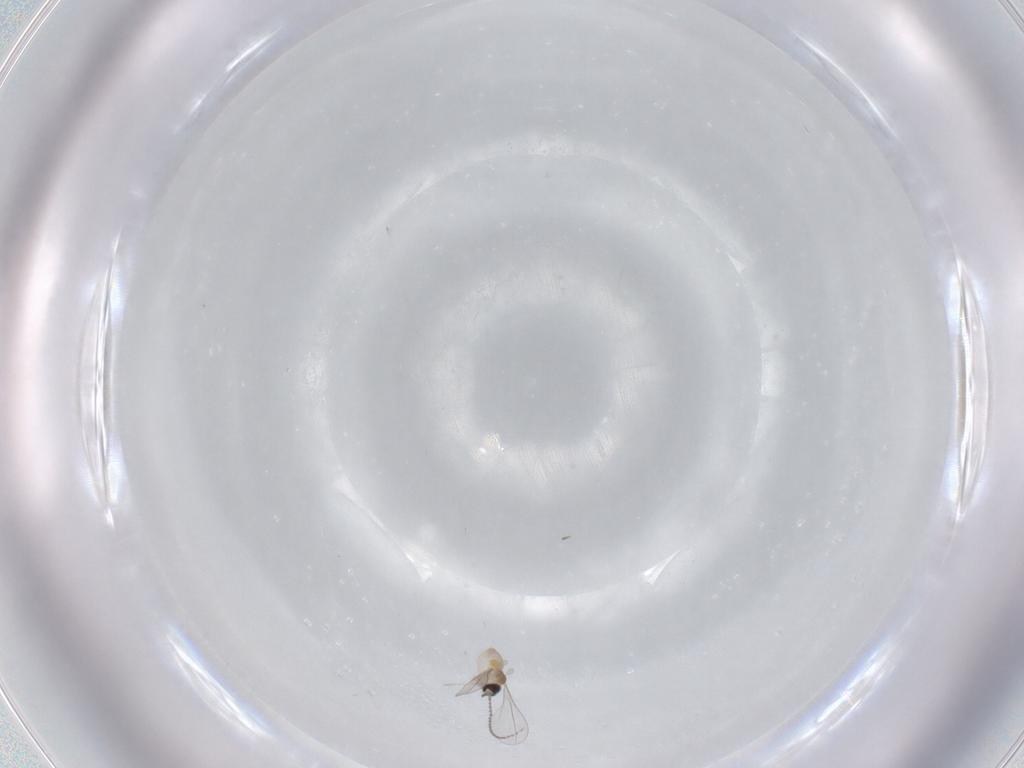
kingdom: Animalia
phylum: Arthropoda
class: Insecta
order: Diptera
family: Cecidomyiidae
